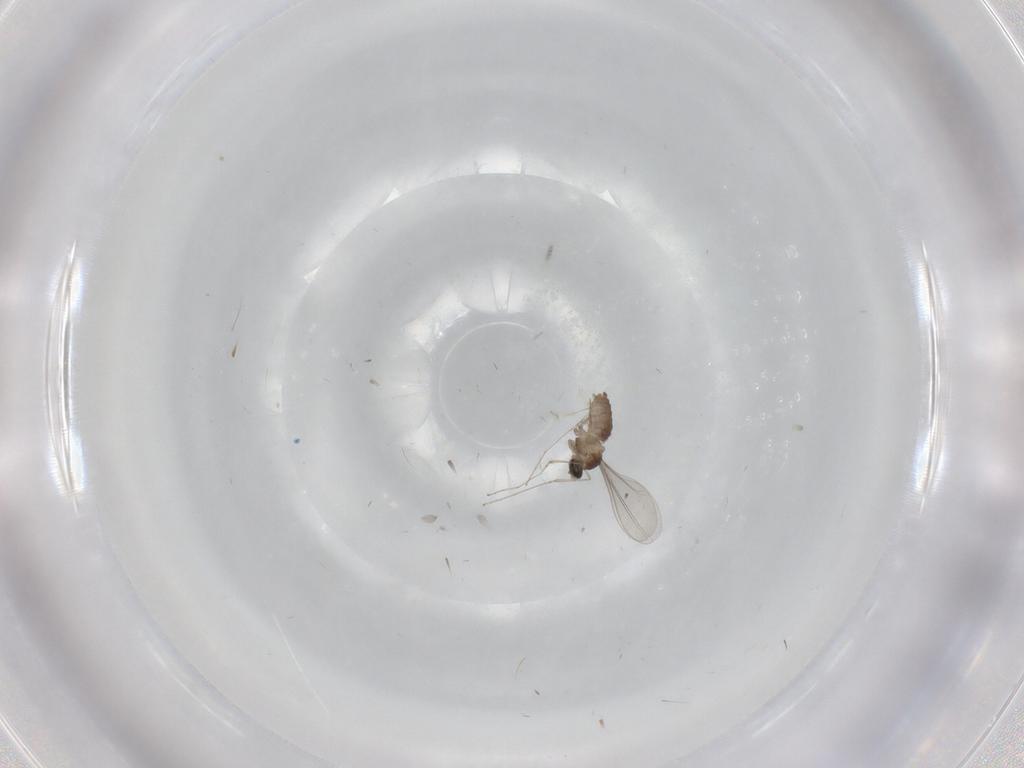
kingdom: Animalia
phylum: Arthropoda
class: Insecta
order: Diptera
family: Cecidomyiidae
